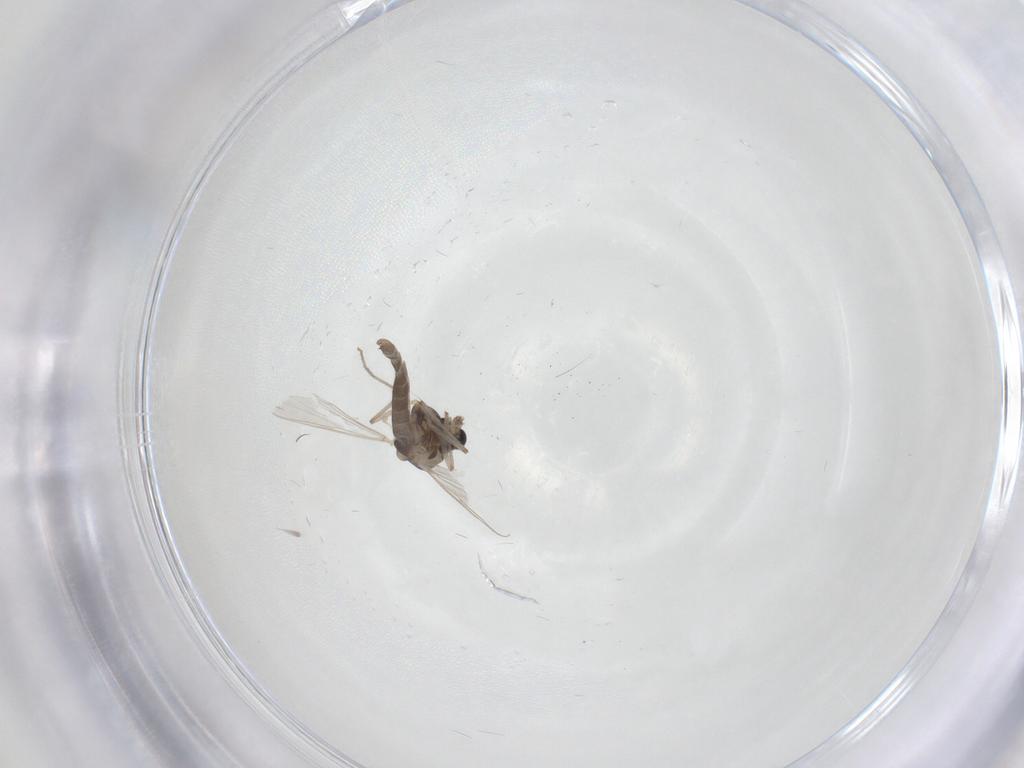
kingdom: Animalia
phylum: Arthropoda
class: Insecta
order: Diptera
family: Chironomidae
